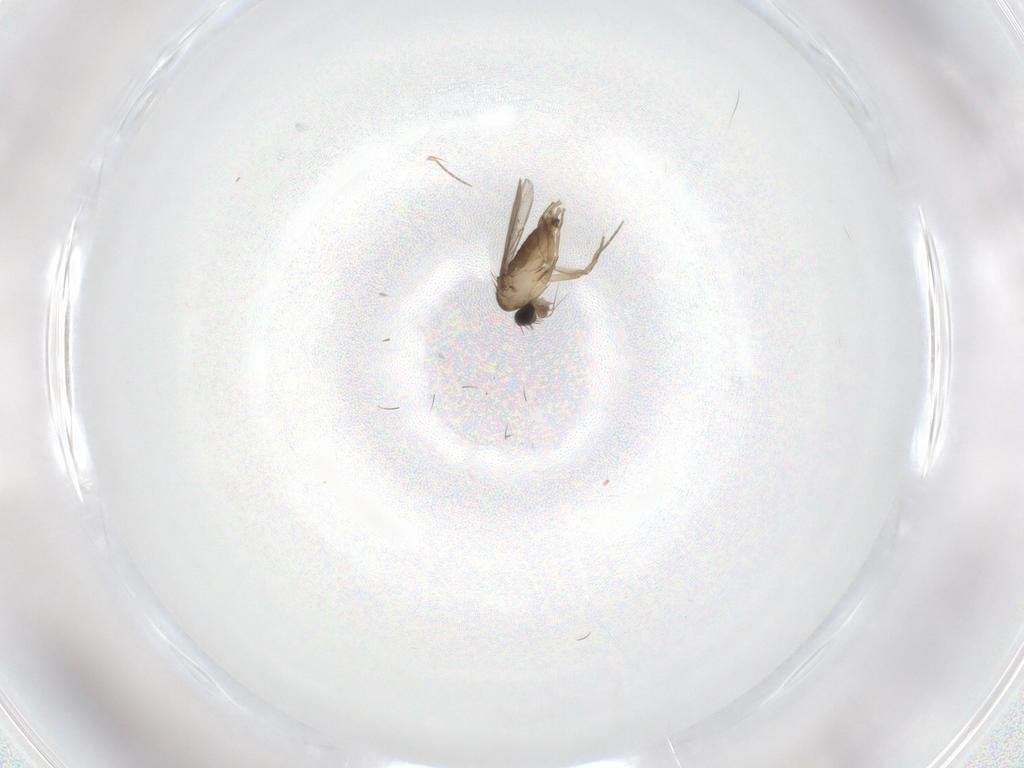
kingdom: Animalia
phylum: Arthropoda
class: Insecta
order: Diptera
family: Phoridae
